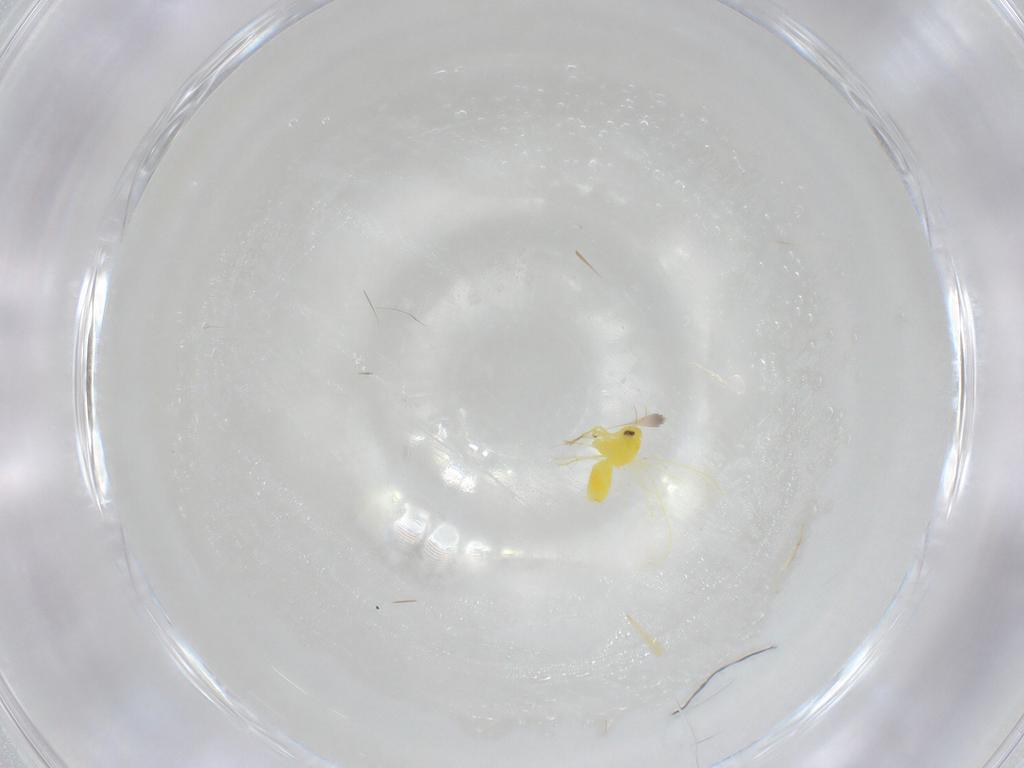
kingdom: Animalia
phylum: Arthropoda
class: Insecta
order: Hemiptera
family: Aleyrodidae
